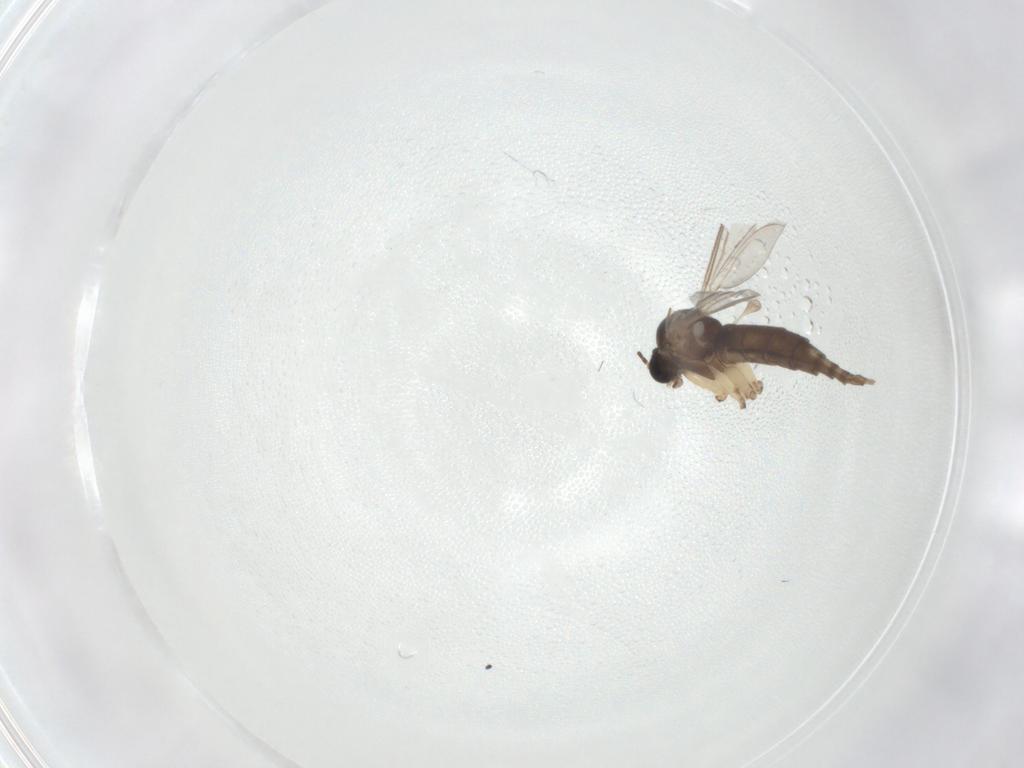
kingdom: Animalia
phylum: Arthropoda
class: Insecta
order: Diptera
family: Sciaridae
